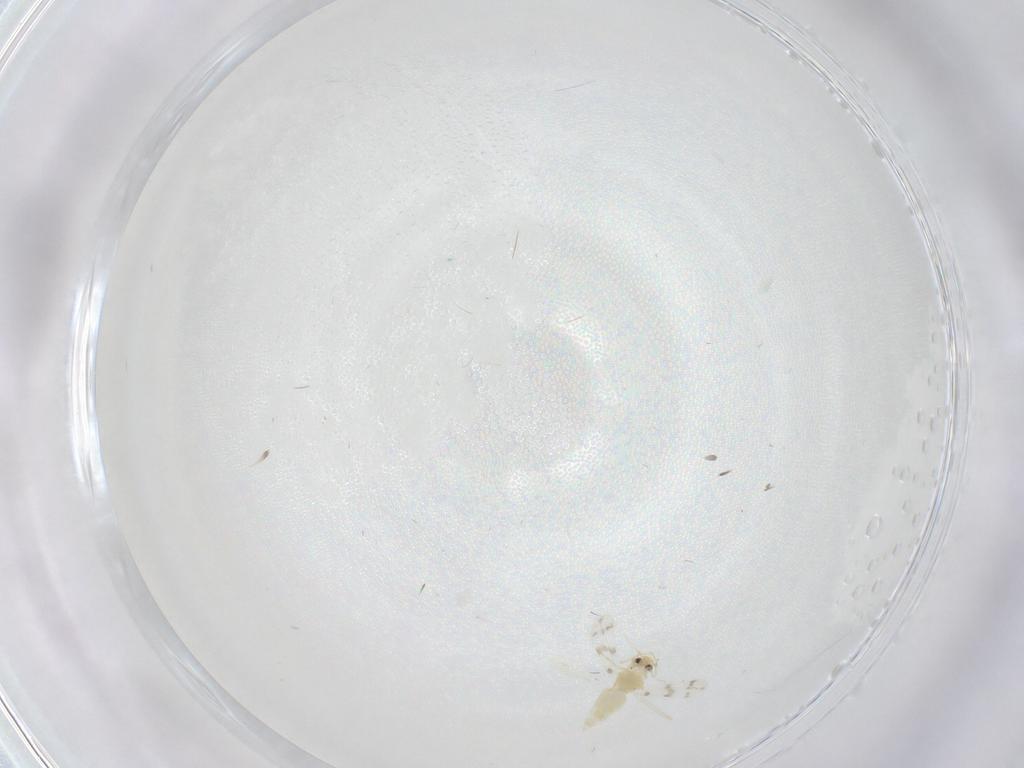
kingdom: Animalia
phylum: Arthropoda
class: Insecta
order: Hemiptera
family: Aleyrodidae
